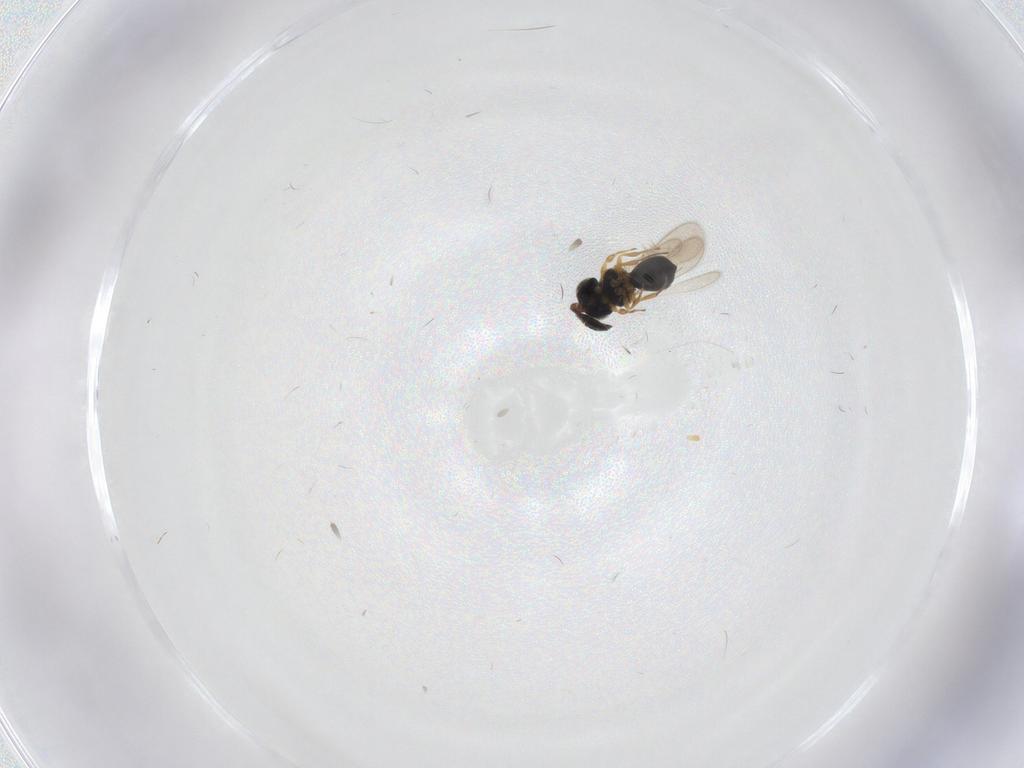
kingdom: Animalia
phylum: Arthropoda
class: Insecta
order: Hymenoptera
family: Scelionidae
